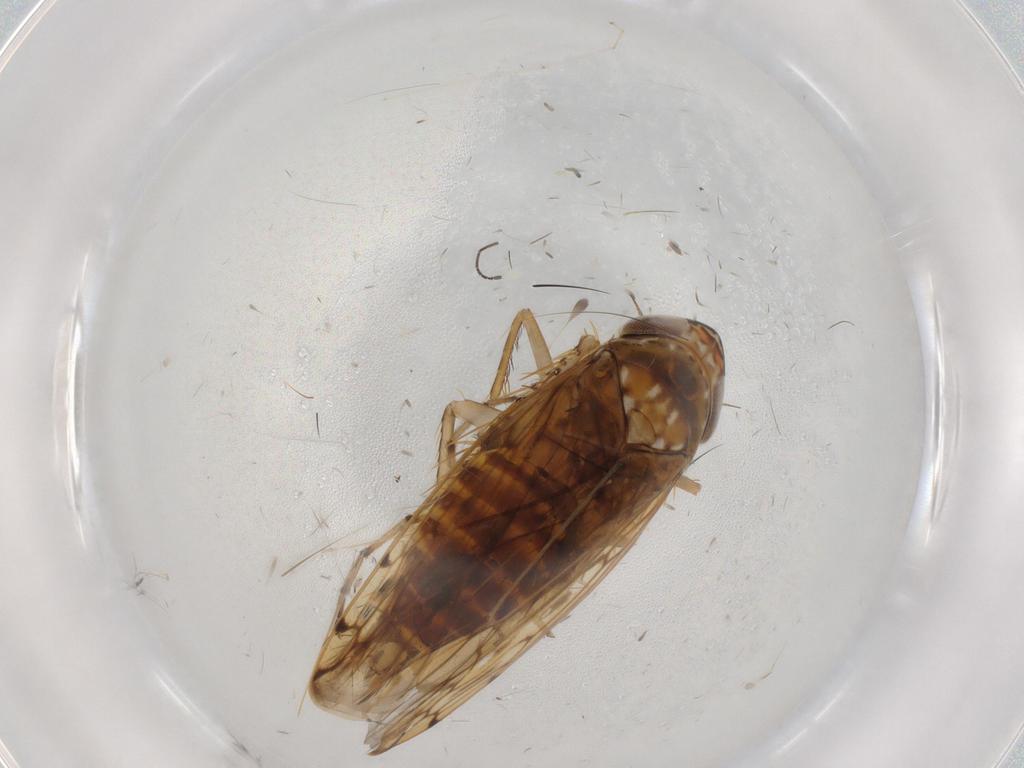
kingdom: Animalia
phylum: Arthropoda
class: Insecta
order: Hemiptera
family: Cicadellidae
